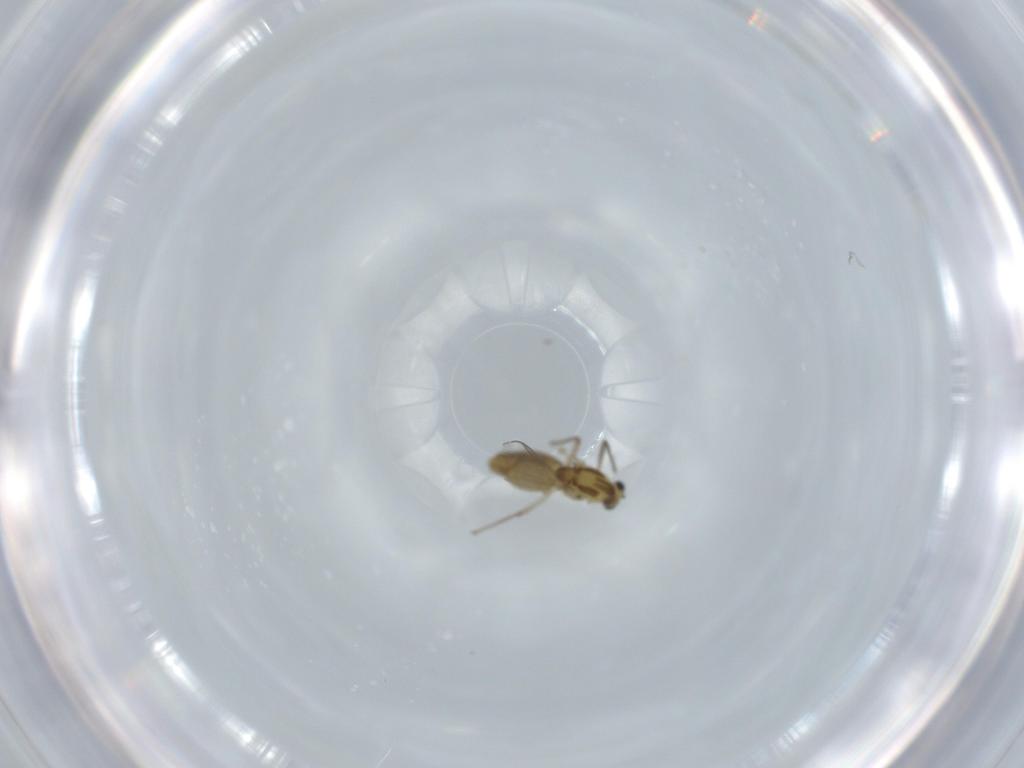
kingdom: Animalia
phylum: Arthropoda
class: Insecta
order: Diptera
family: Chironomidae
